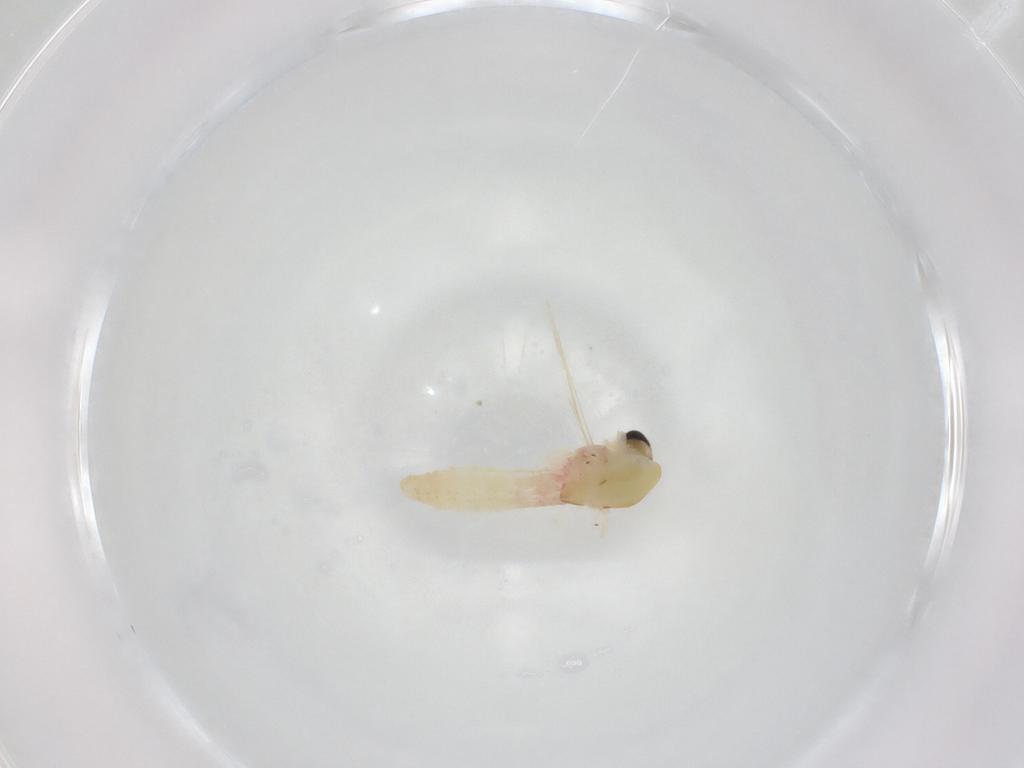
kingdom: Animalia
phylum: Arthropoda
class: Insecta
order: Diptera
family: Chironomidae
